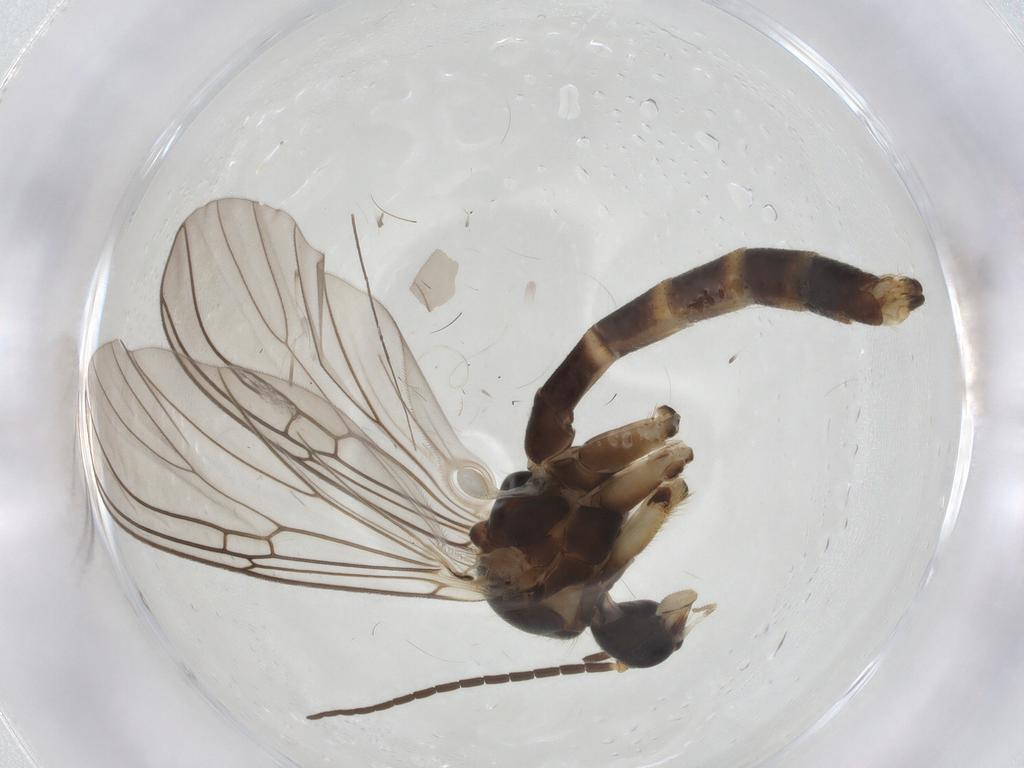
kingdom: Animalia
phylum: Arthropoda
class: Insecta
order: Diptera
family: Mycetophilidae
